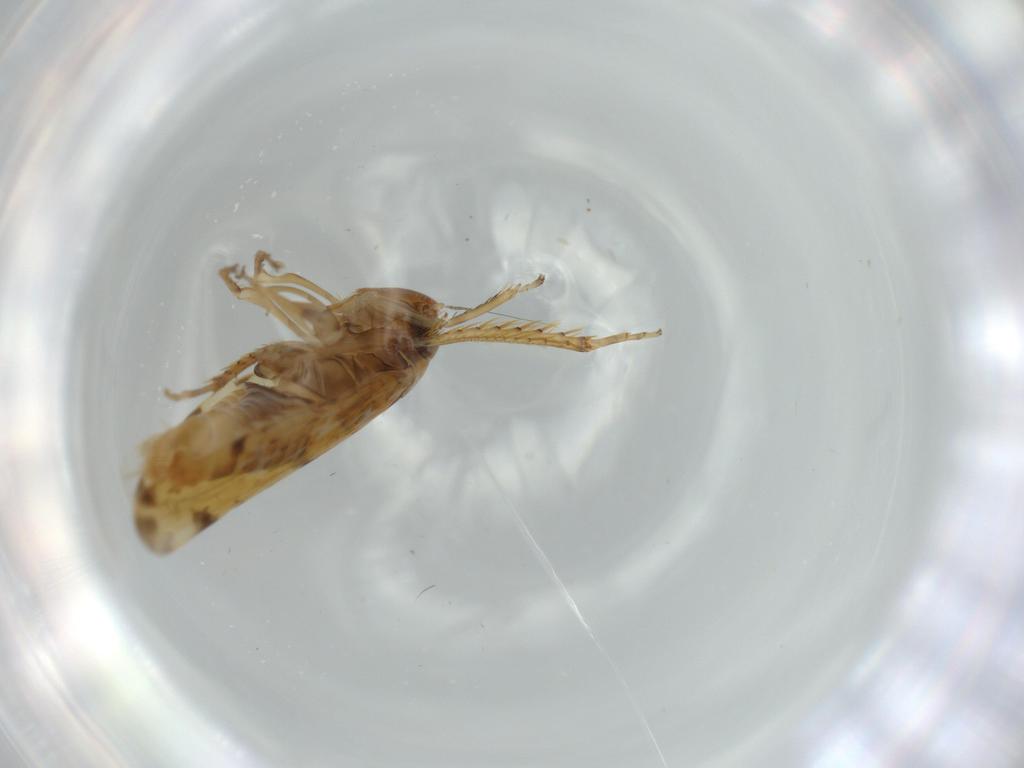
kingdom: Animalia
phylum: Arthropoda
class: Insecta
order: Hemiptera
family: Cicadellidae
